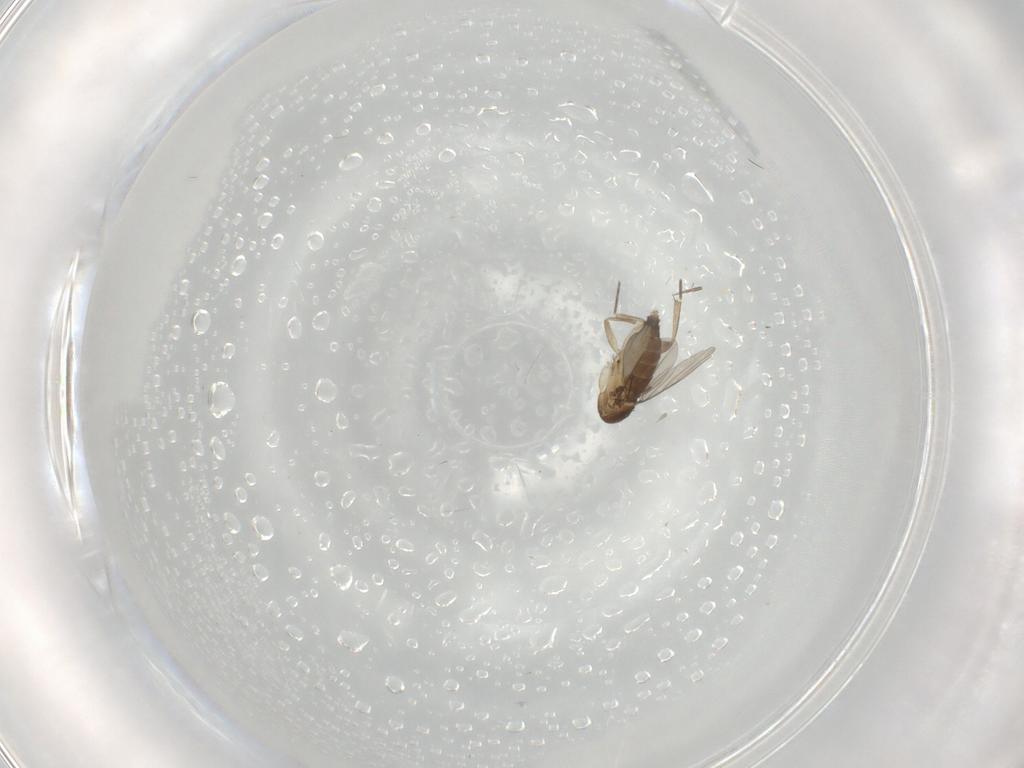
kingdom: Animalia
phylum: Arthropoda
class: Insecta
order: Diptera
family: Phoridae
